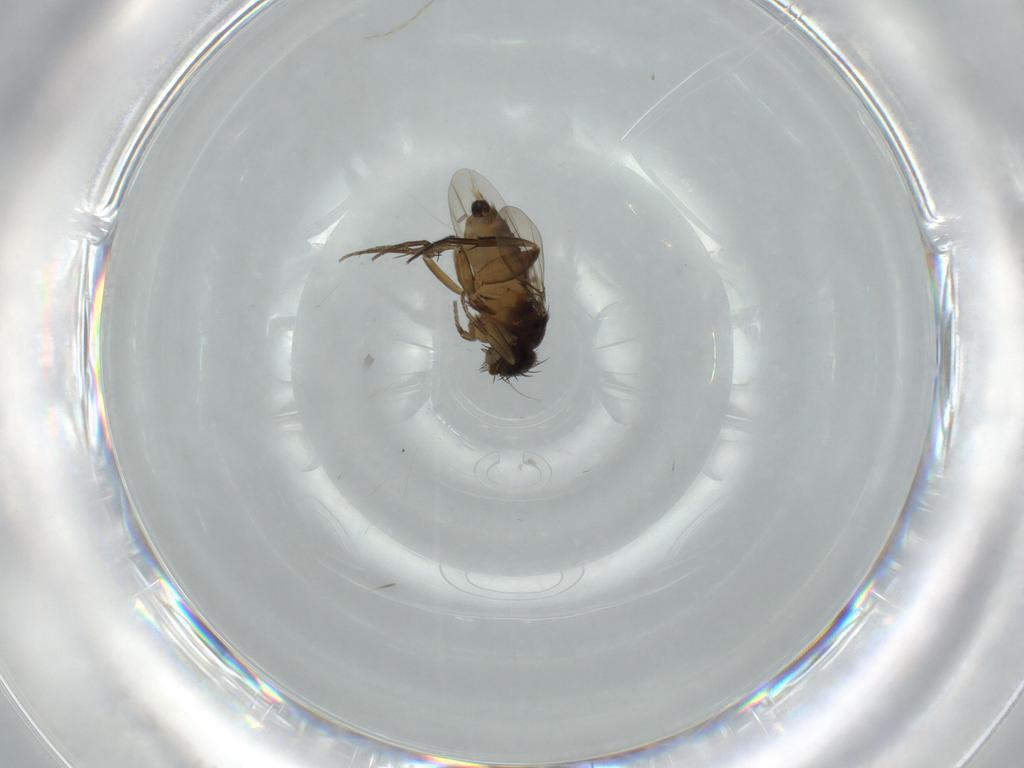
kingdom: Animalia
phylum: Arthropoda
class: Insecta
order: Diptera
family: Phoridae
